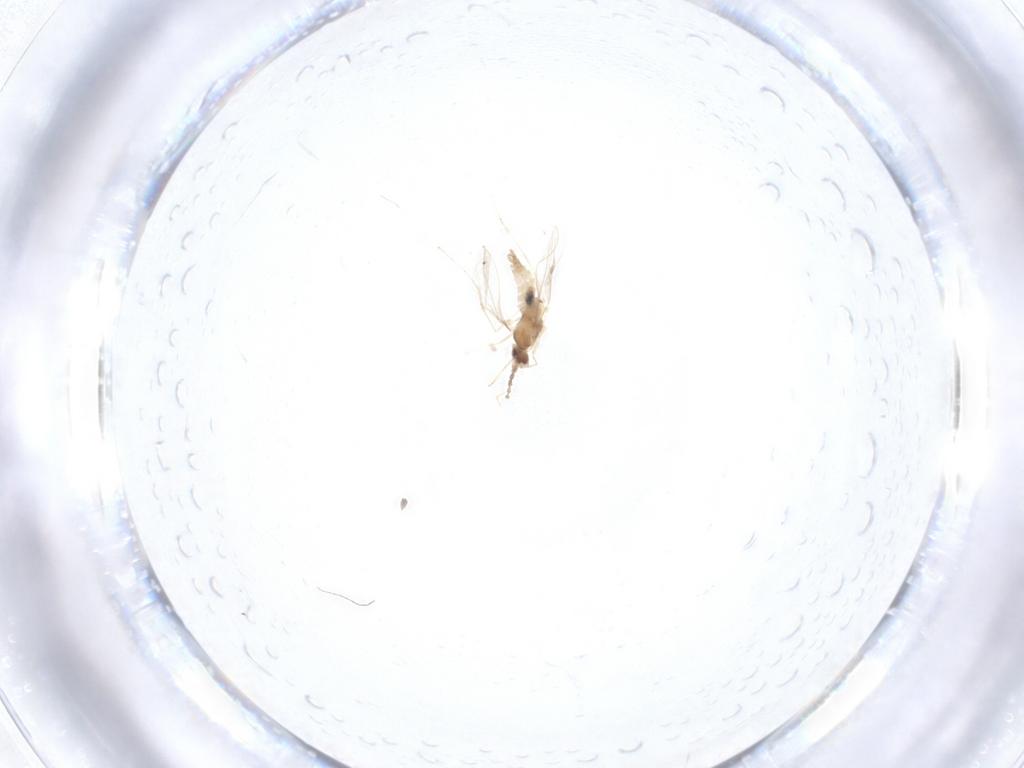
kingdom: Animalia
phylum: Arthropoda
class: Insecta
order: Diptera
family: Cecidomyiidae
